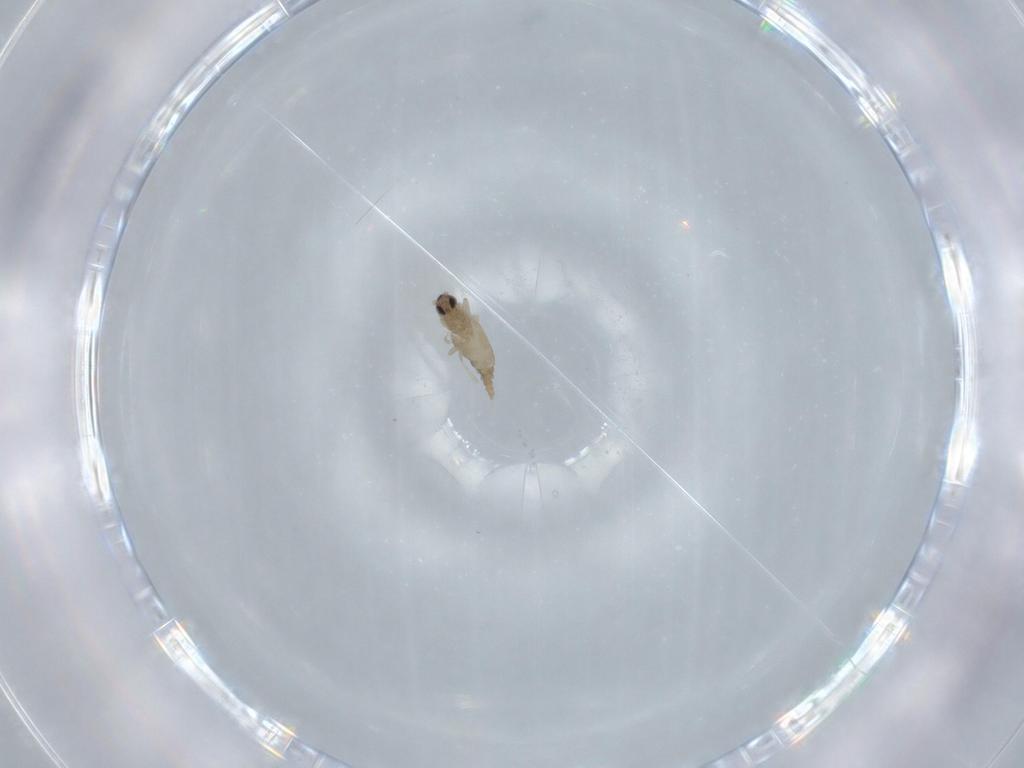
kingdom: Animalia
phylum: Arthropoda
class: Insecta
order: Diptera
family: Cecidomyiidae
